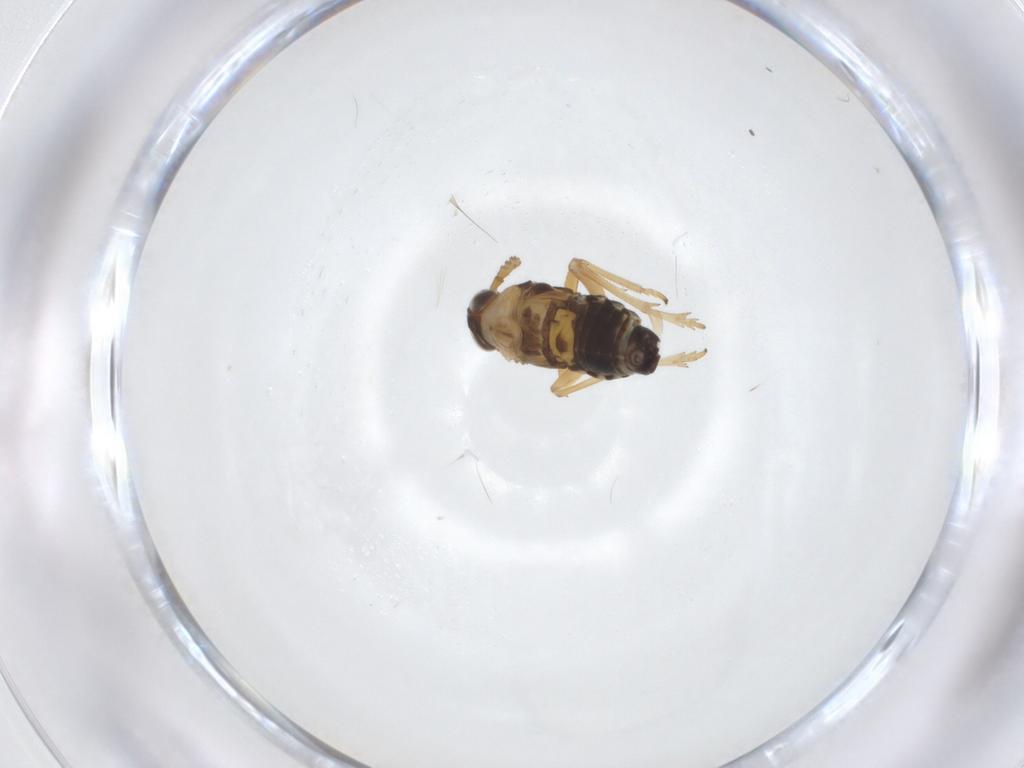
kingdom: Animalia
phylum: Arthropoda
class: Insecta
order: Hemiptera
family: Delphacidae
